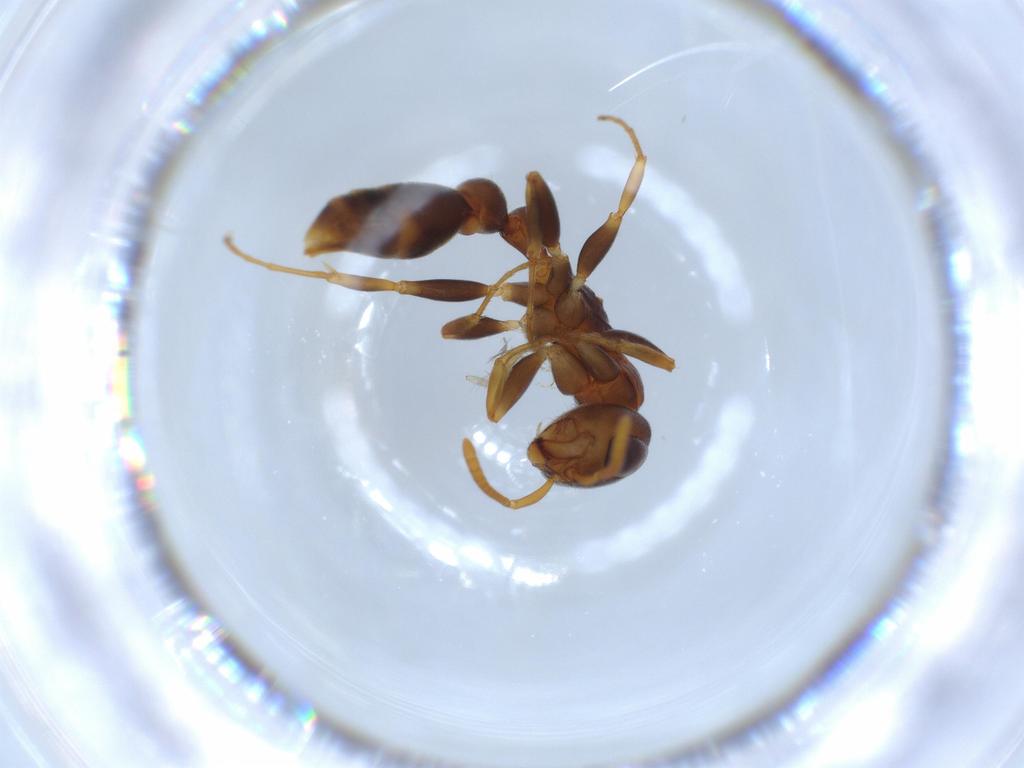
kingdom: Animalia
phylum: Arthropoda
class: Insecta
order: Hymenoptera
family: Formicidae
